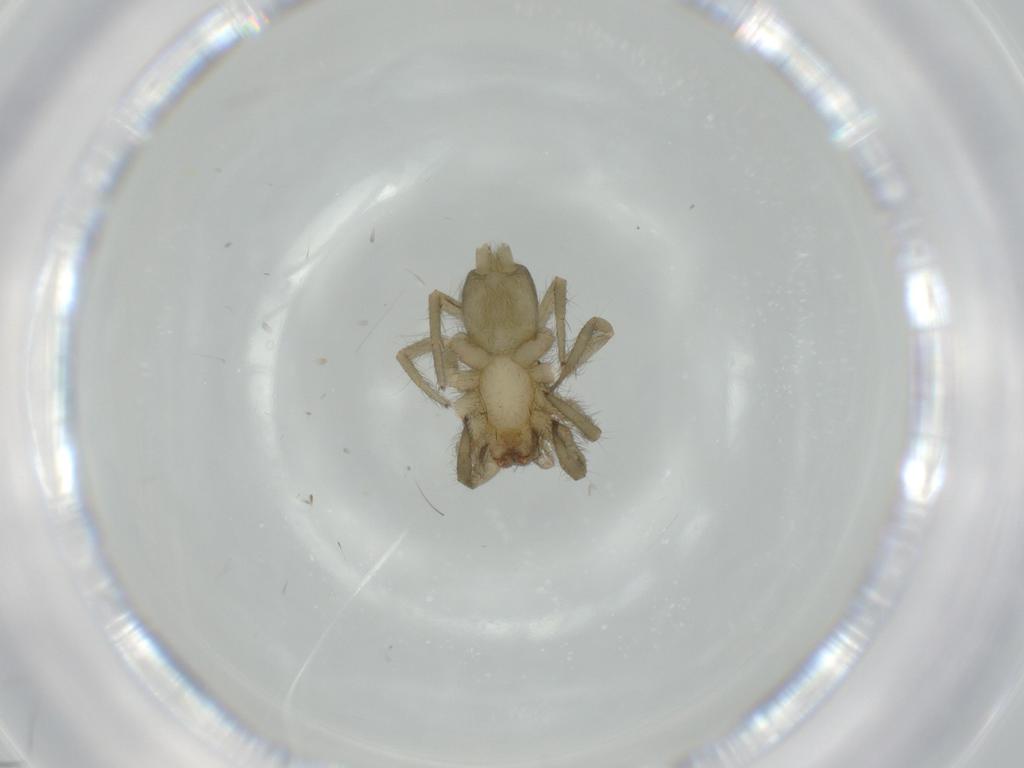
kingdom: Animalia
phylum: Arthropoda
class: Arachnida
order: Araneae
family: Gnaphosidae
